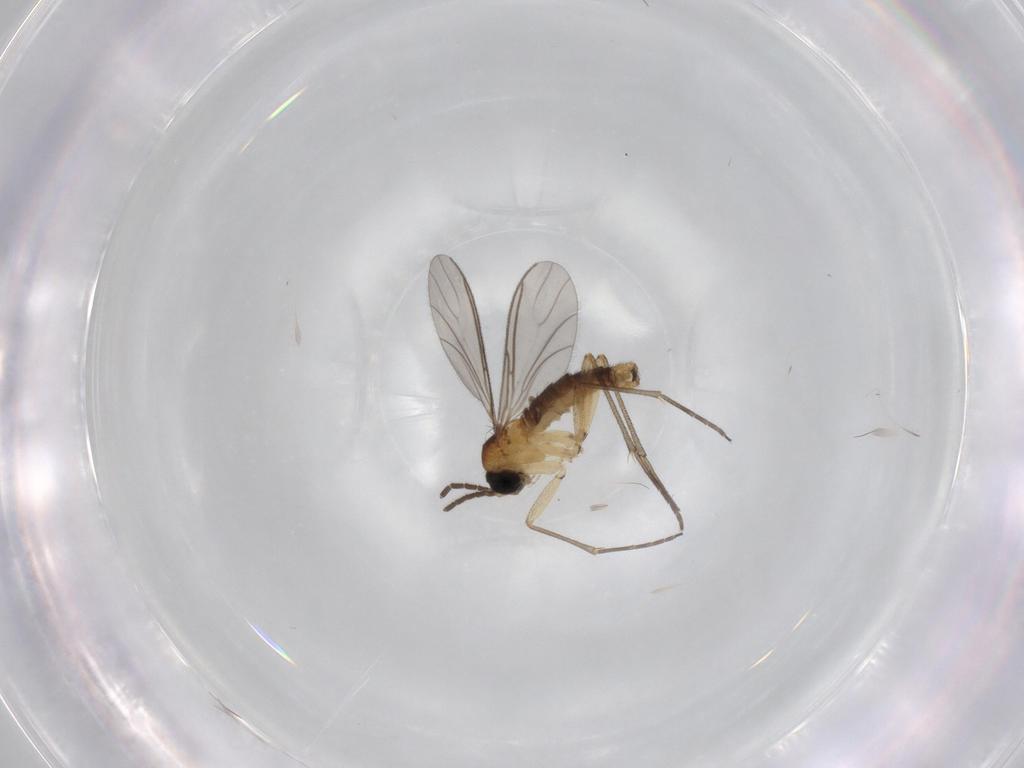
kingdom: Animalia
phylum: Arthropoda
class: Insecta
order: Diptera
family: Sciaridae
